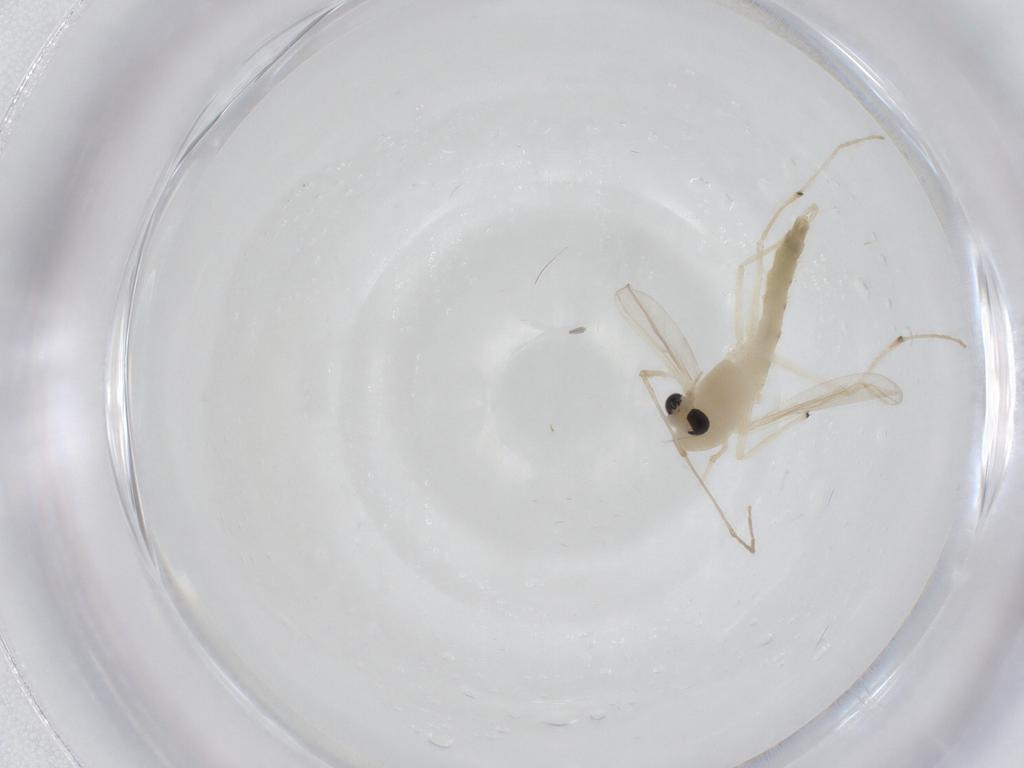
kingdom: Animalia
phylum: Arthropoda
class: Insecta
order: Diptera
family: Chironomidae
